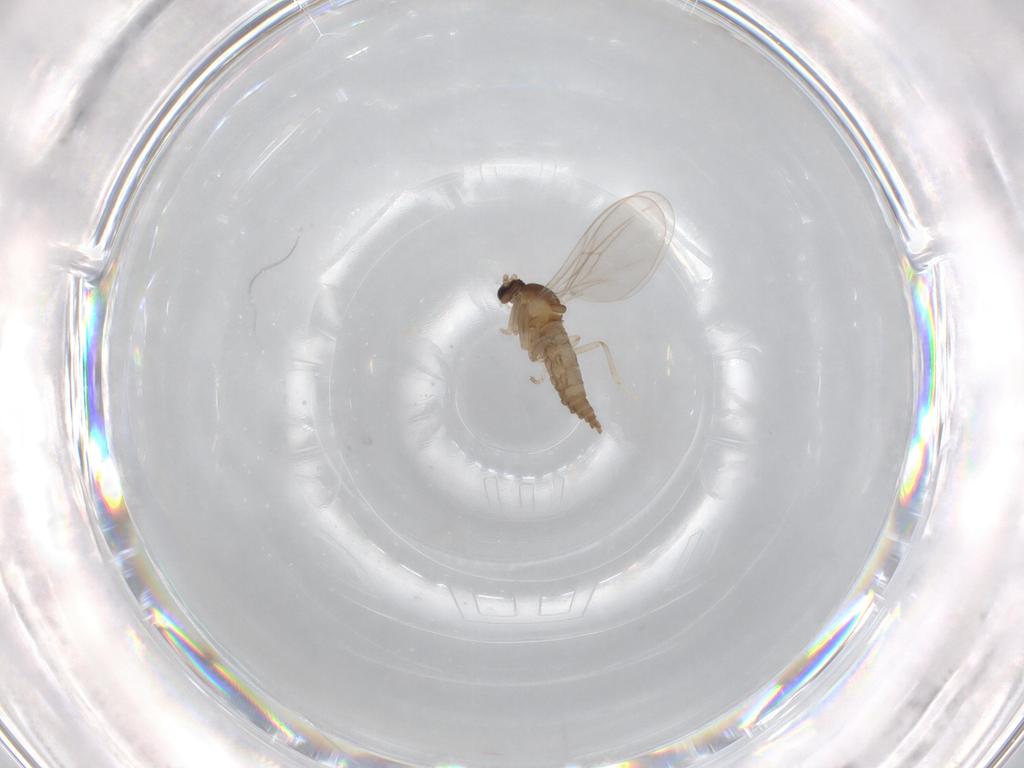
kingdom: Animalia
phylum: Arthropoda
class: Insecta
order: Diptera
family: Cecidomyiidae
